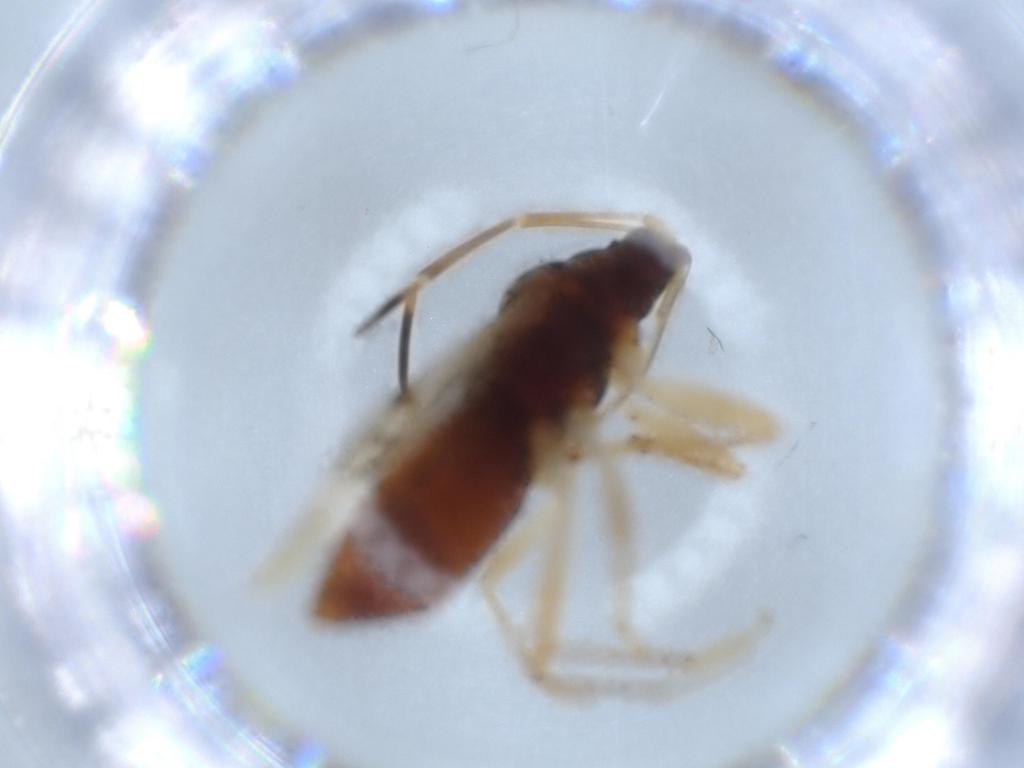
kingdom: Animalia
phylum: Arthropoda
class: Insecta
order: Hemiptera
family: Rhyparochromidae
